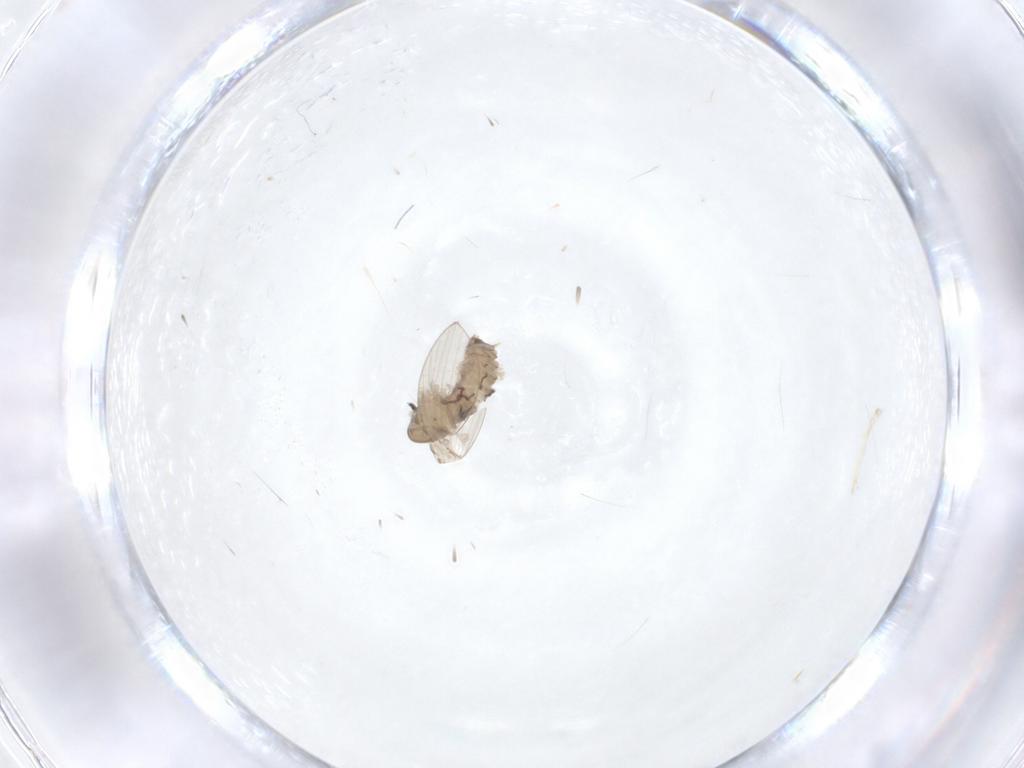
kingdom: Animalia
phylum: Arthropoda
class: Insecta
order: Diptera
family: Psychodidae
